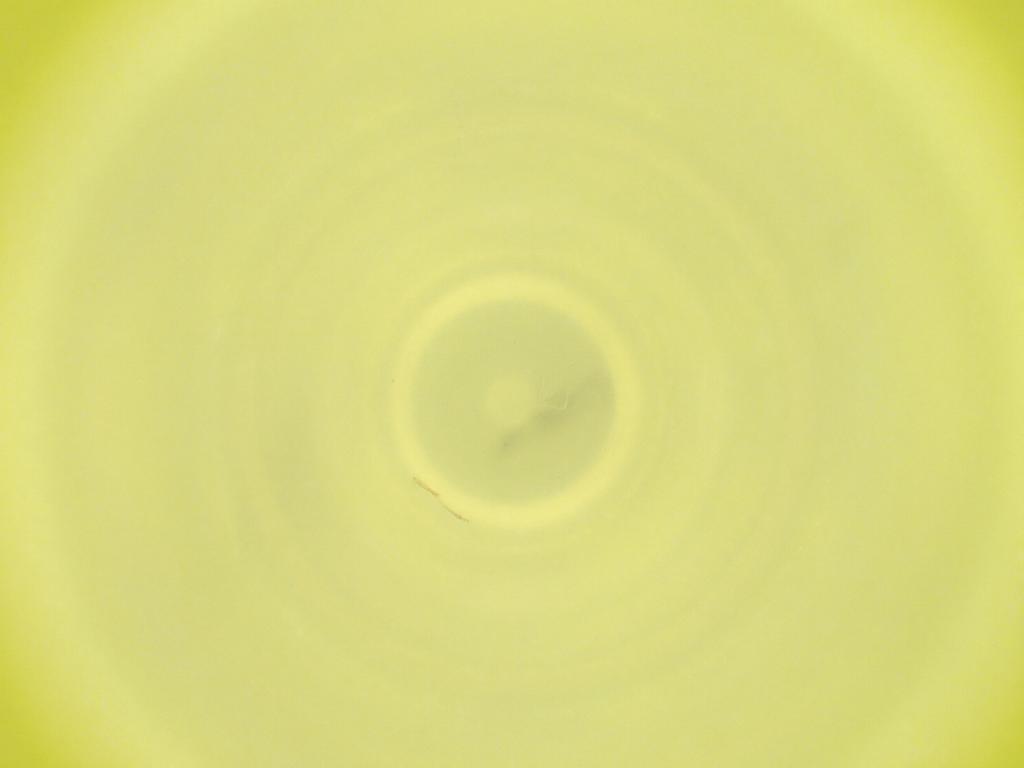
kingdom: Animalia
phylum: Arthropoda
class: Insecta
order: Diptera
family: Cecidomyiidae
